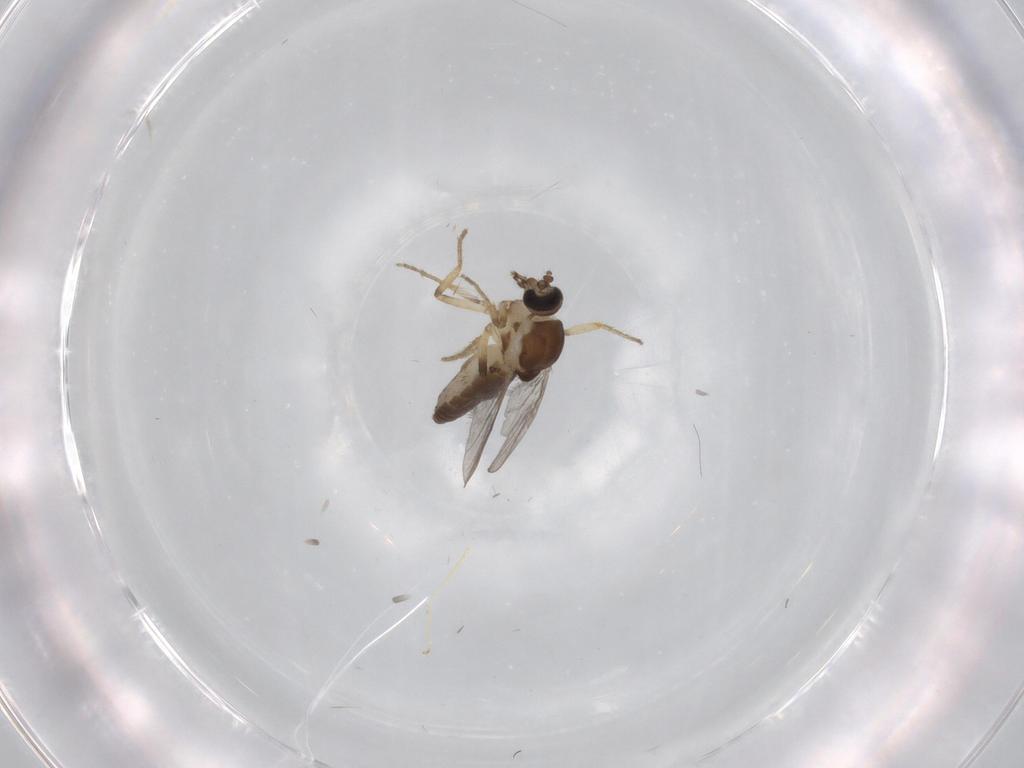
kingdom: Animalia
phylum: Arthropoda
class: Insecta
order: Diptera
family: Ceratopogonidae
